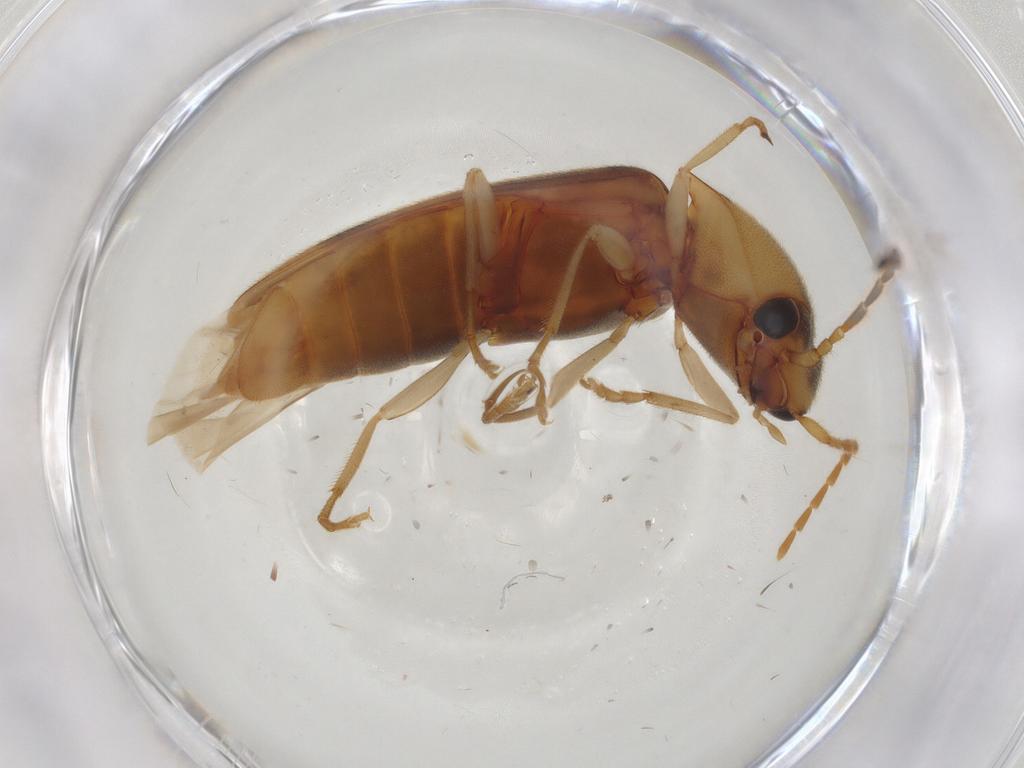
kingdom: Animalia
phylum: Arthropoda
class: Insecta
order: Coleoptera
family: Elateridae
